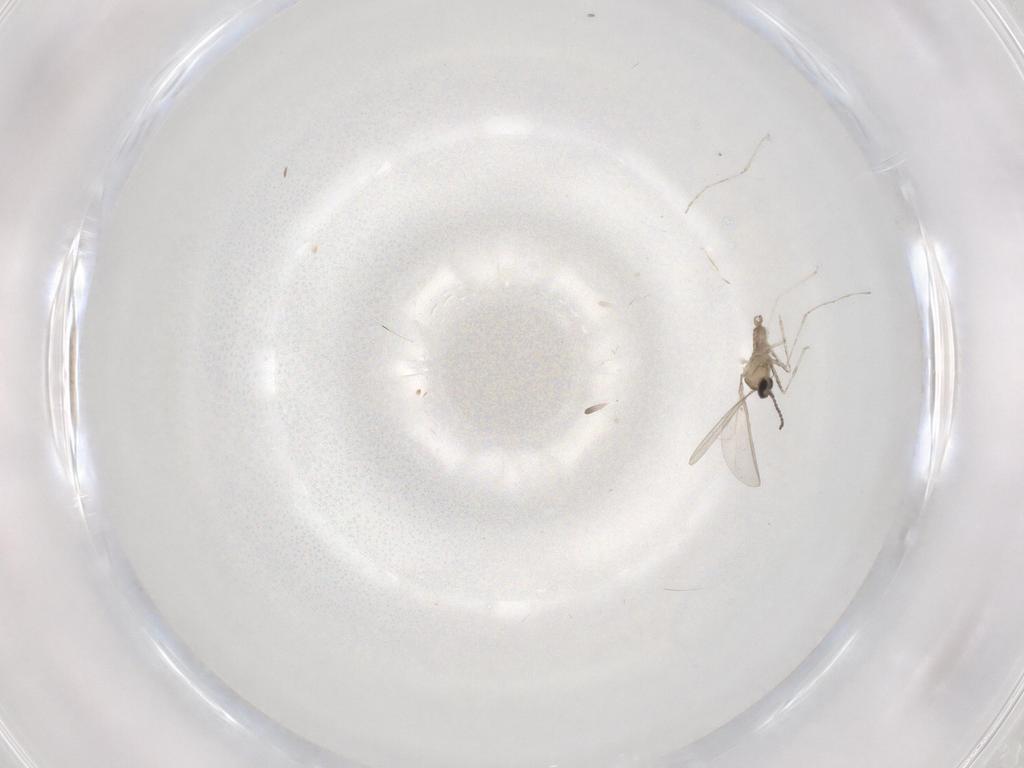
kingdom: Animalia
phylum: Arthropoda
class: Insecta
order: Diptera
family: Cecidomyiidae
